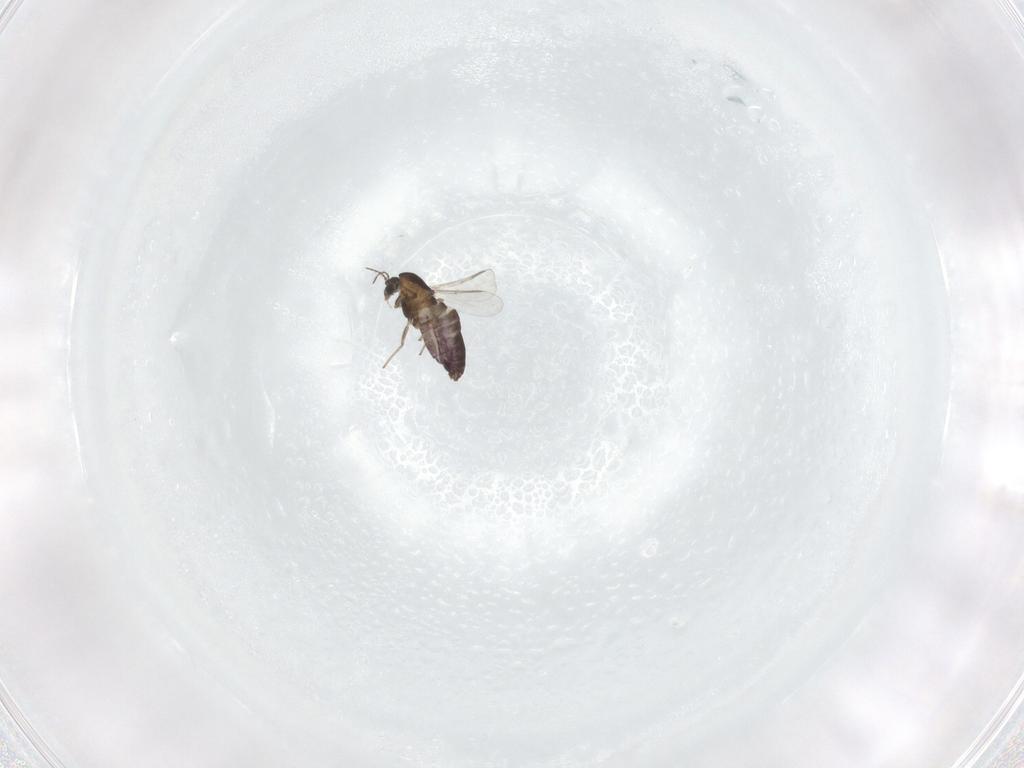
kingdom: Animalia
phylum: Arthropoda
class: Insecta
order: Diptera
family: Chironomidae
